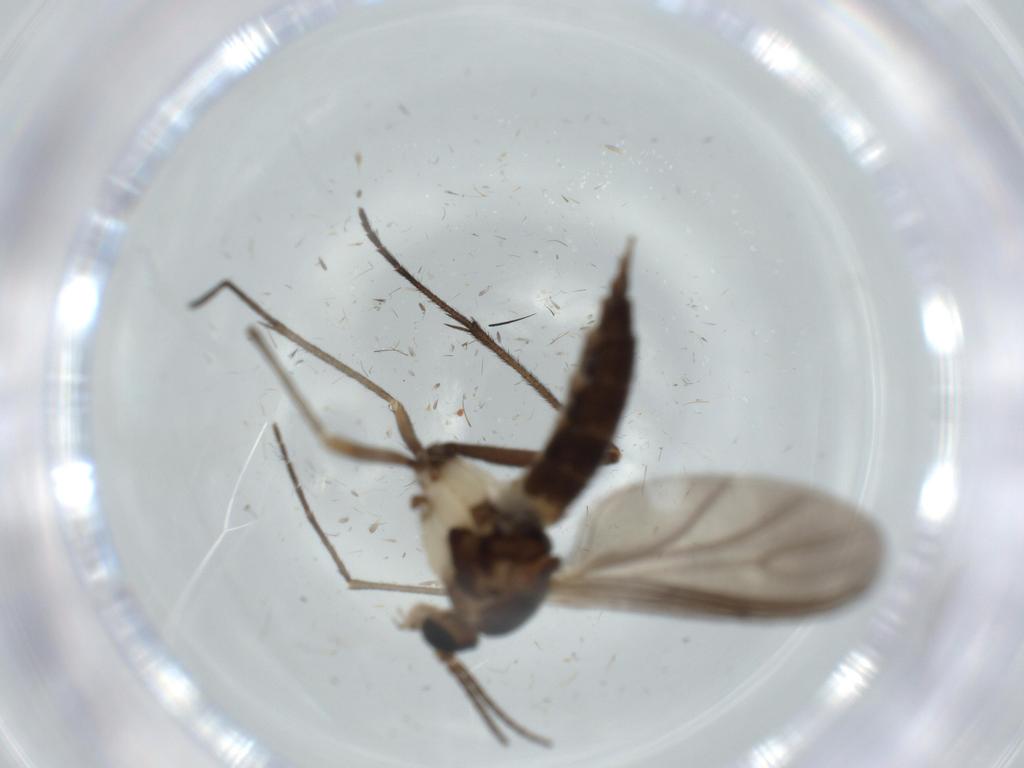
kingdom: Animalia
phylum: Arthropoda
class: Insecta
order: Diptera
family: Sciaridae
